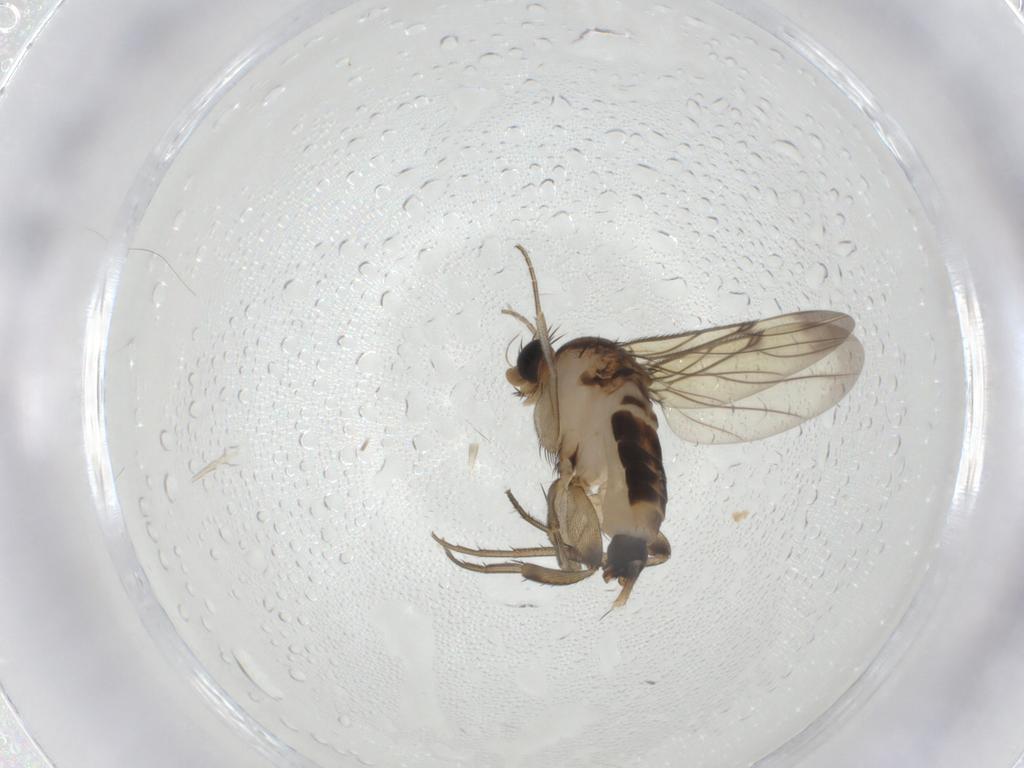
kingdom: Animalia
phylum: Arthropoda
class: Insecta
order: Diptera
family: Phoridae
